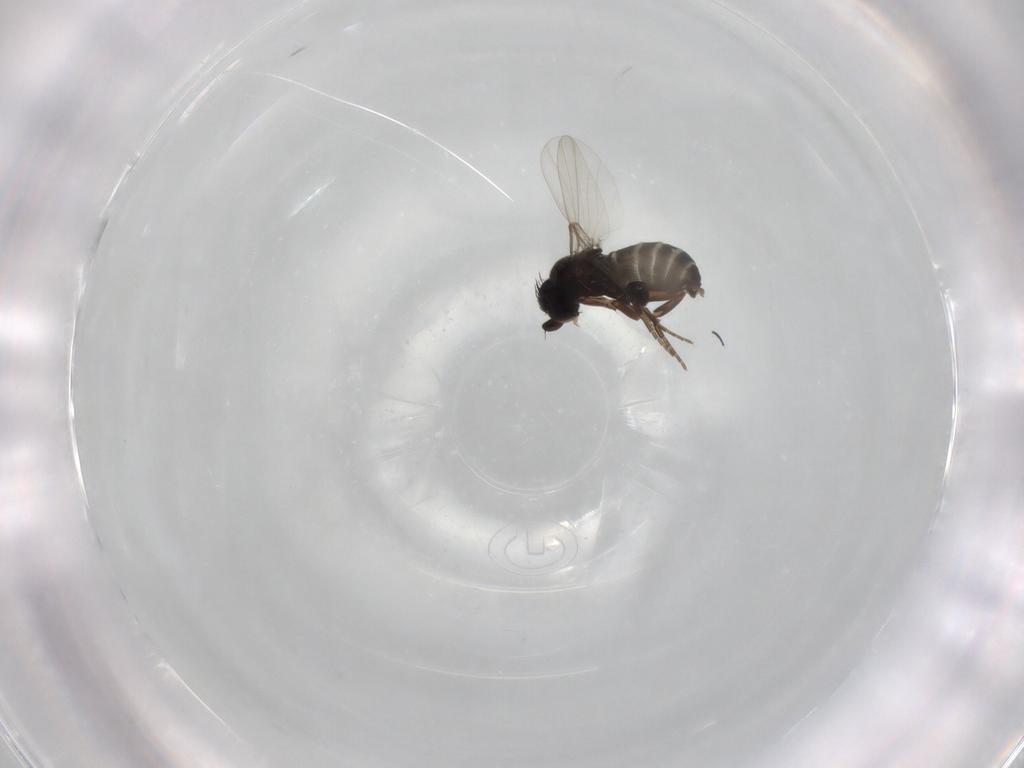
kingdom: Animalia
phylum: Arthropoda
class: Insecta
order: Diptera
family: Phoridae
